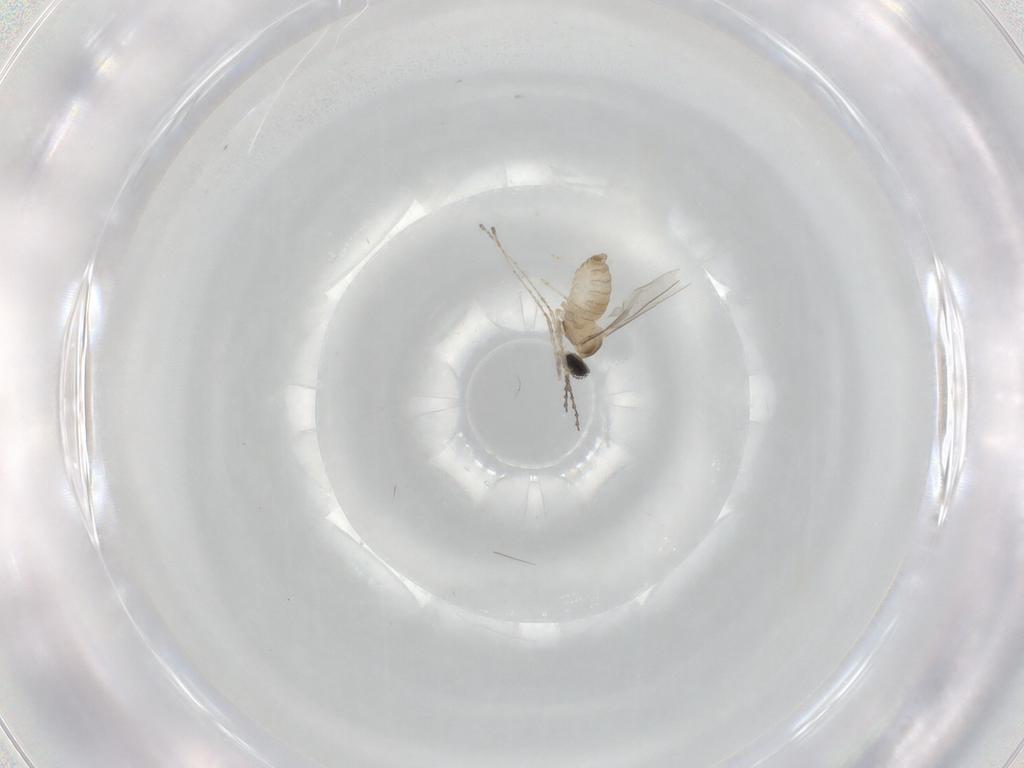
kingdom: Animalia
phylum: Arthropoda
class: Insecta
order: Diptera
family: Cecidomyiidae
